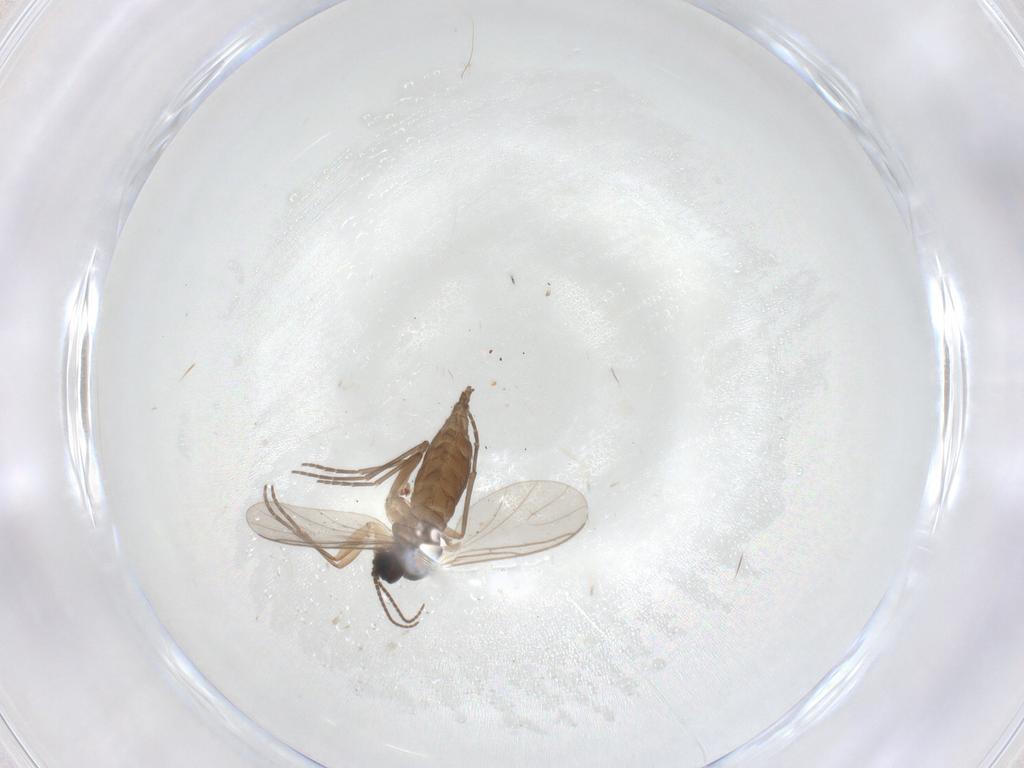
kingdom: Animalia
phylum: Arthropoda
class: Insecta
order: Diptera
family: Sciaridae
